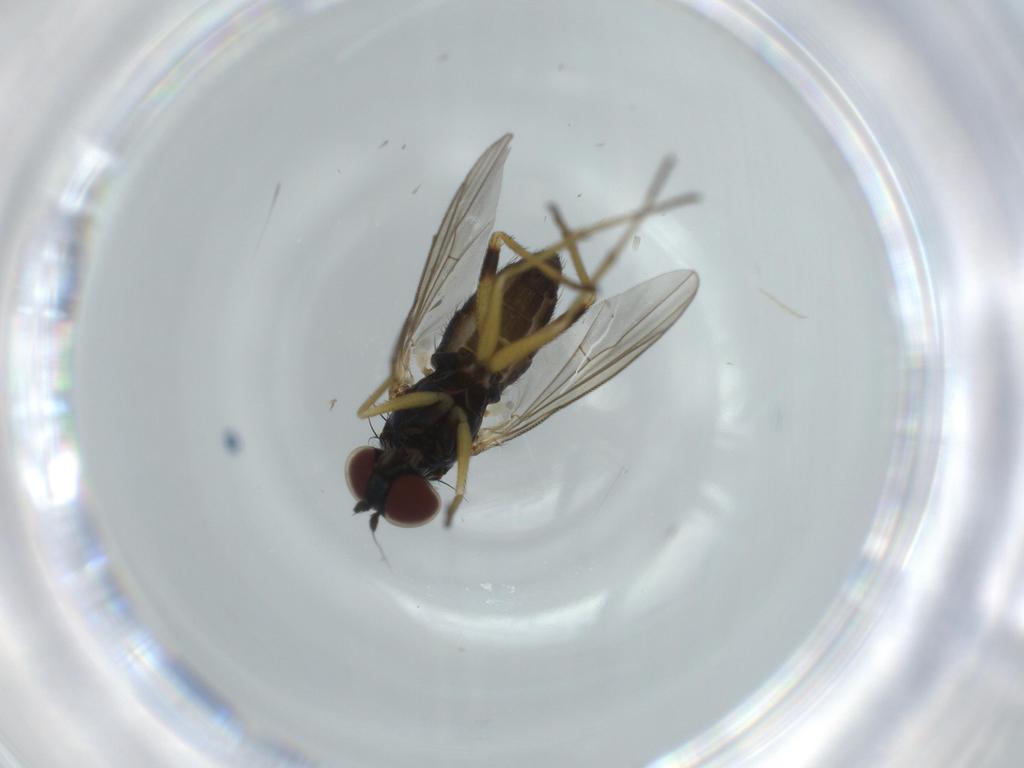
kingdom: Animalia
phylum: Arthropoda
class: Insecta
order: Diptera
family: Milichiidae
